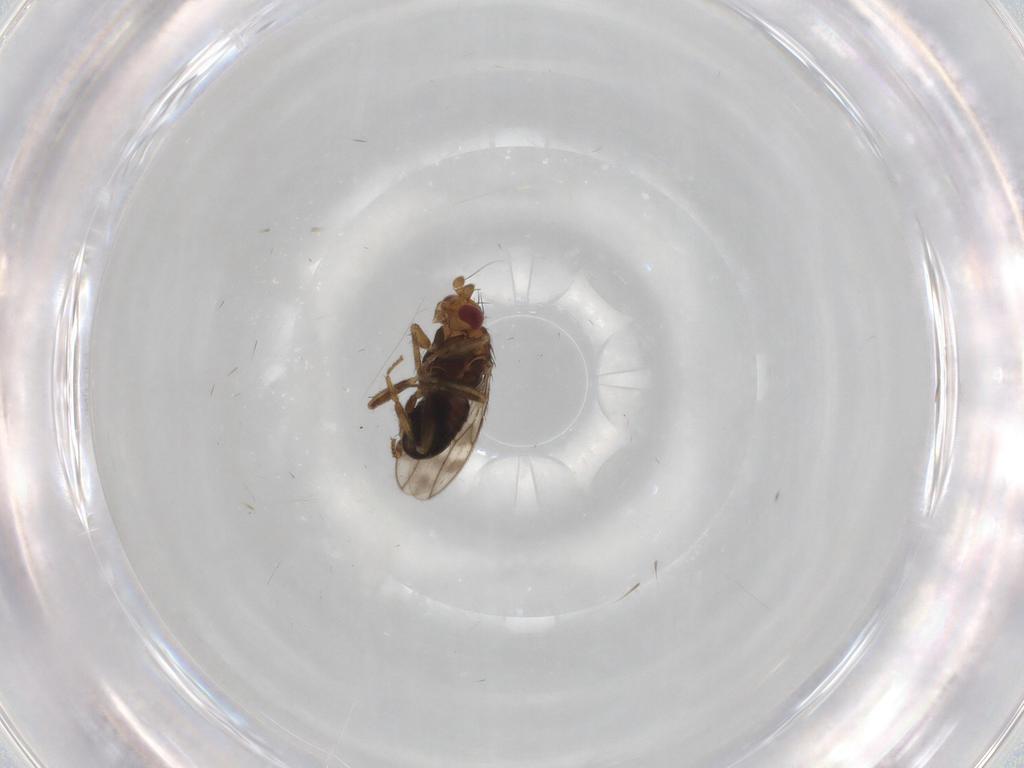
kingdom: Animalia
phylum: Arthropoda
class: Insecta
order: Diptera
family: Sphaeroceridae
